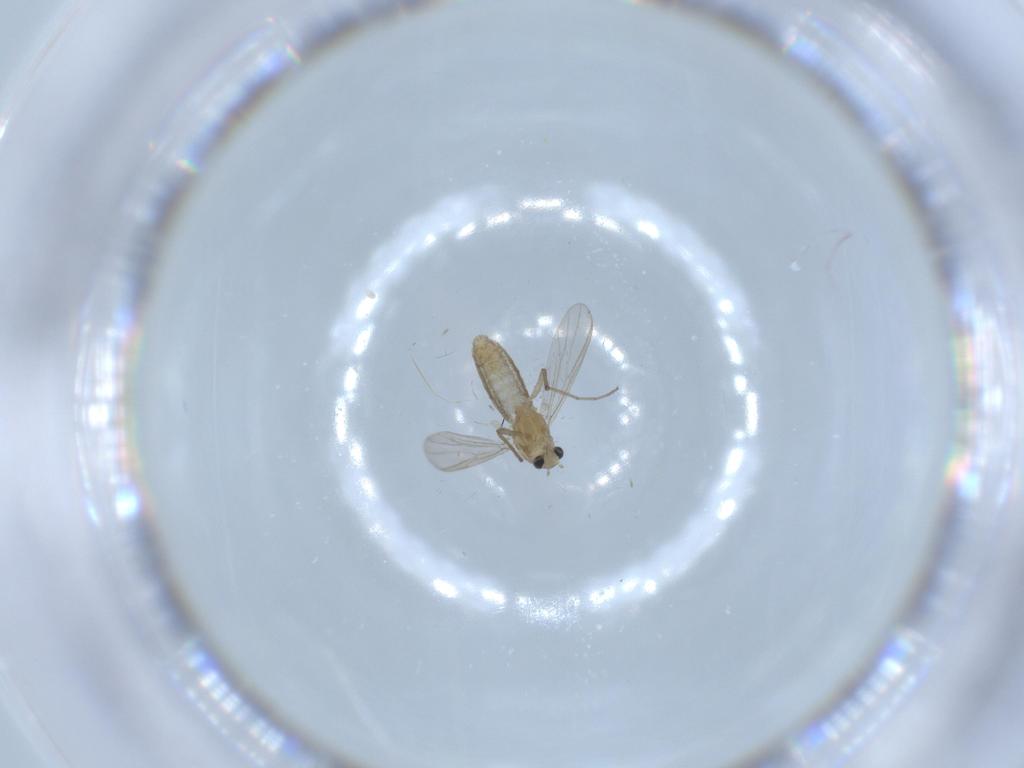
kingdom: Animalia
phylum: Arthropoda
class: Insecta
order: Diptera
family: Chironomidae
